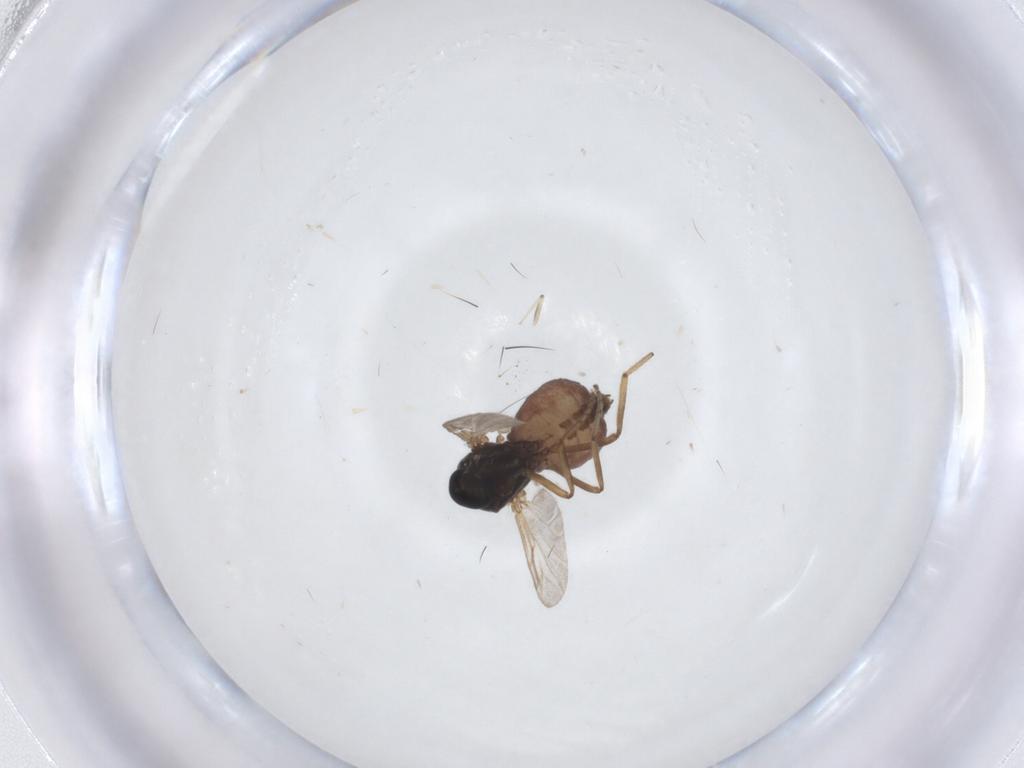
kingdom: Animalia
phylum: Arthropoda
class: Insecta
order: Diptera
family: Ceratopogonidae
